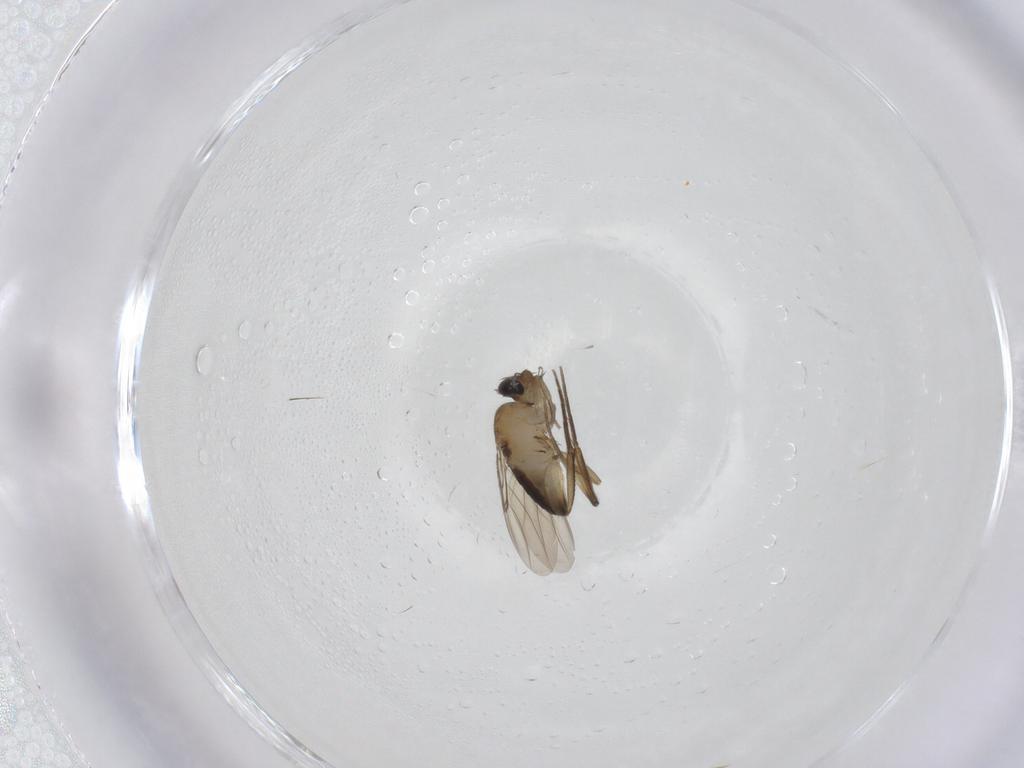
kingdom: Animalia
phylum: Arthropoda
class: Insecta
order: Diptera
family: Phoridae
